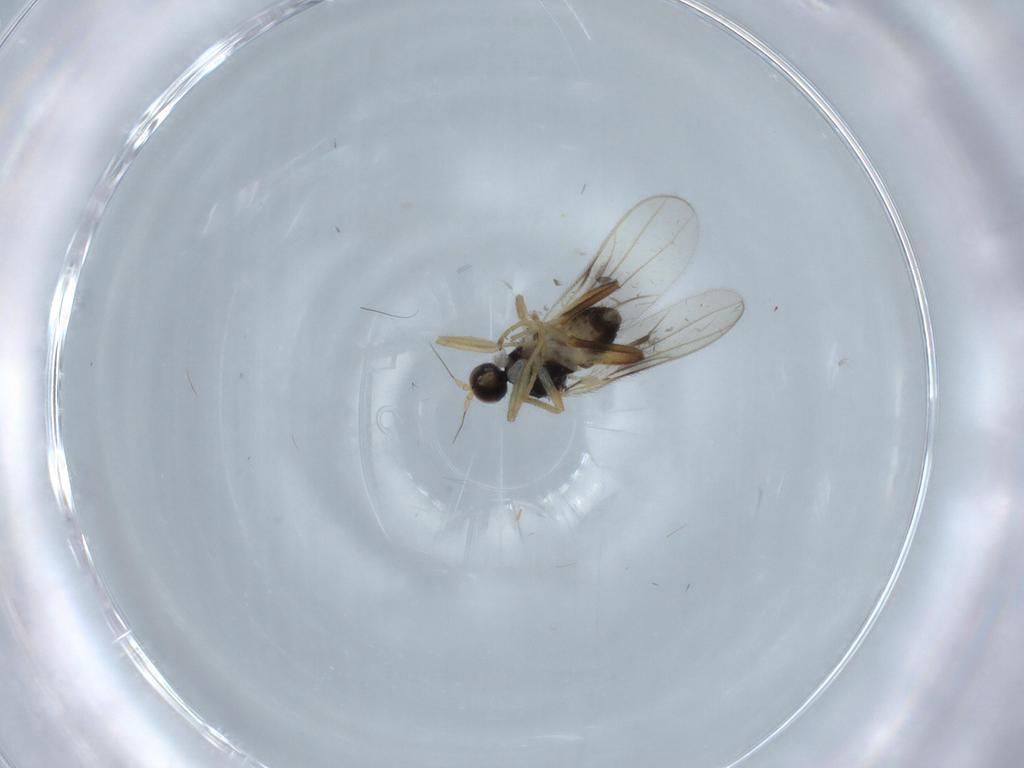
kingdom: Animalia
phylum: Arthropoda
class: Insecta
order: Diptera
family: Hybotidae
